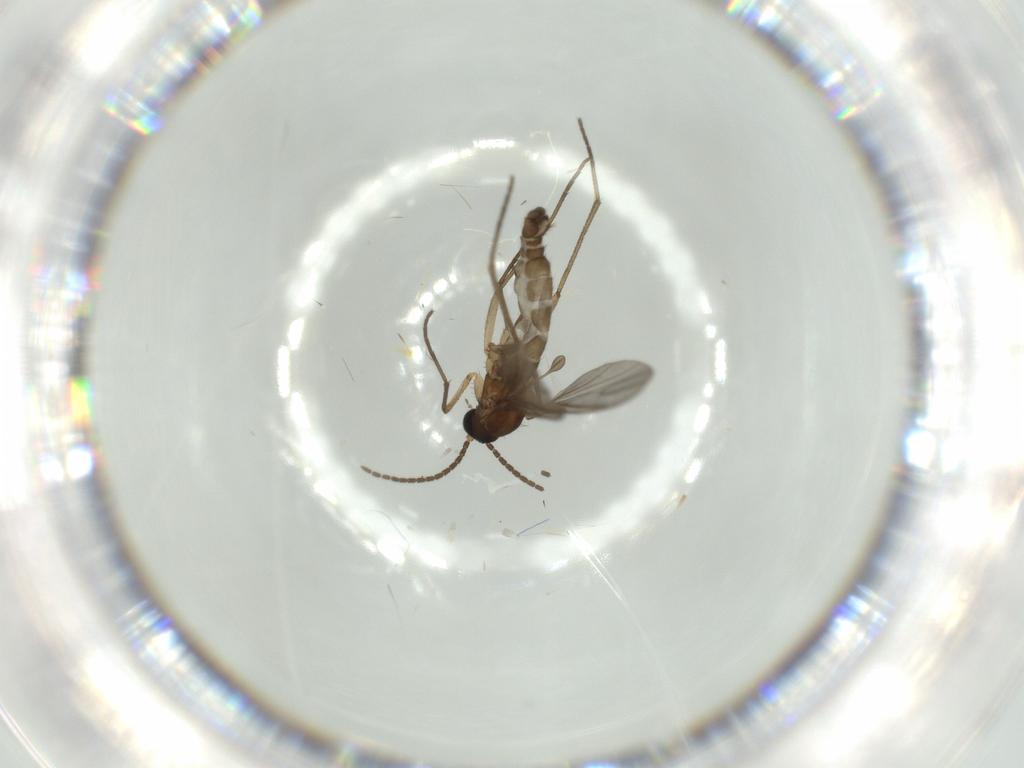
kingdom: Animalia
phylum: Arthropoda
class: Insecta
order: Diptera
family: Sciaridae
